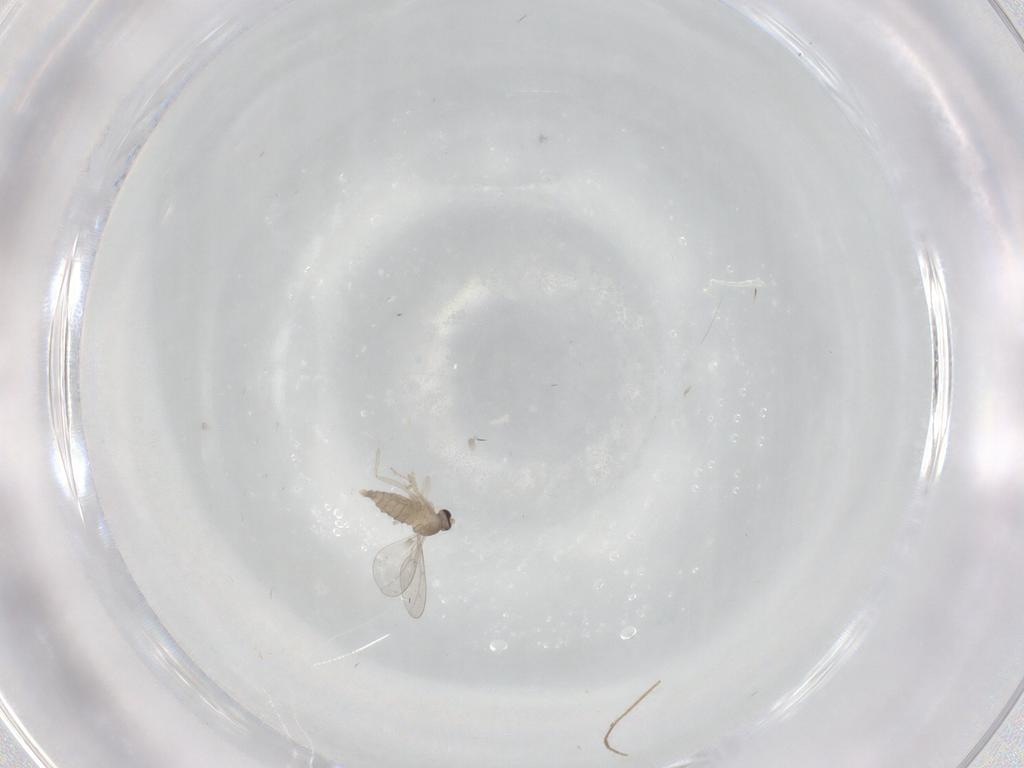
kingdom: Animalia
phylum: Arthropoda
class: Insecta
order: Diptera
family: Cecidomyiidae
